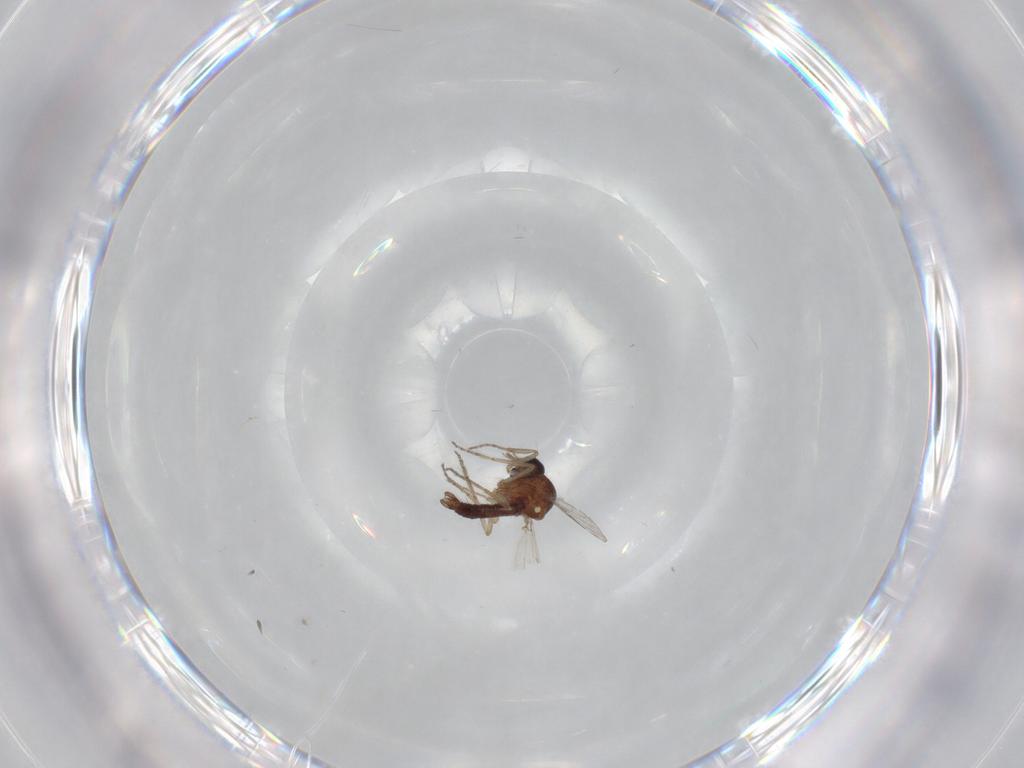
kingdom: Animalia
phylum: Arthropoda
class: Insecta
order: Diptera
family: Ceratopogonidae
